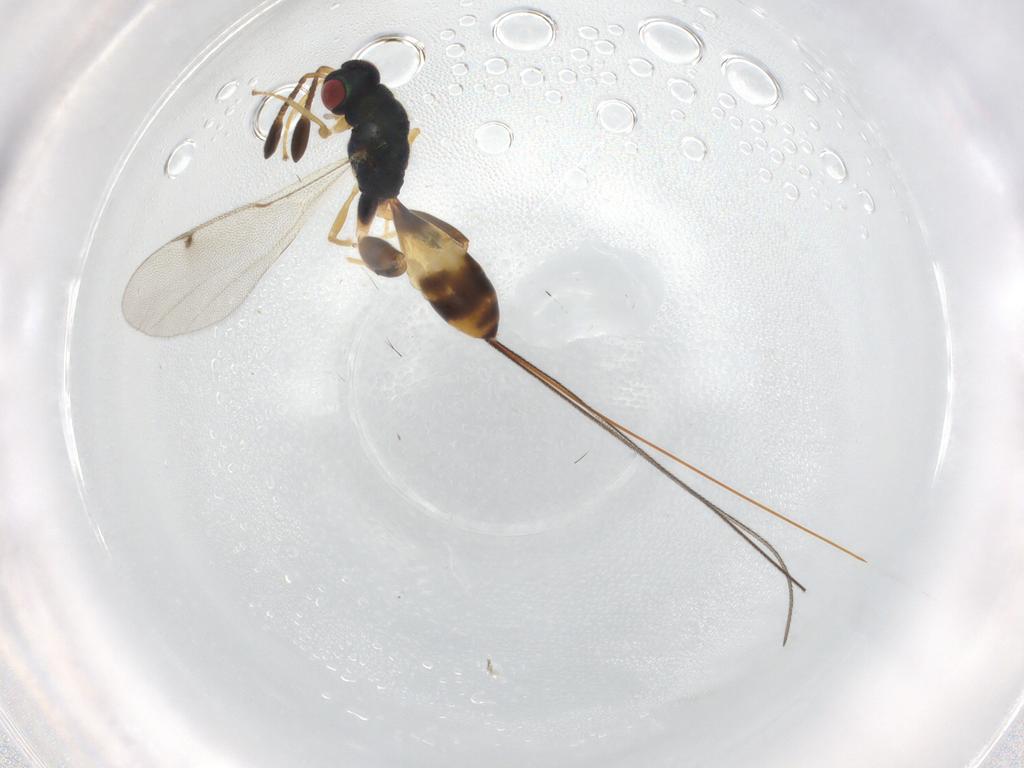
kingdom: Animalia
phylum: Arthropoda
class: Insecta
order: Hymenoptera
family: Torymidae
